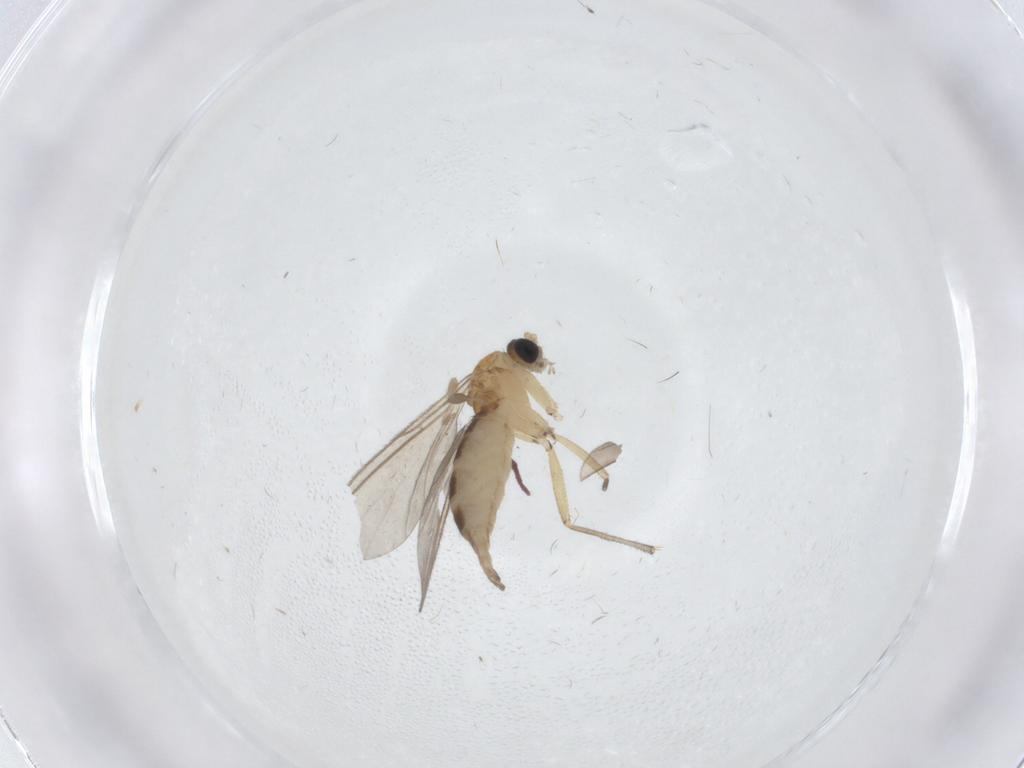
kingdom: Animalia
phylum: Arthropoda
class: Insecta
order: Diptera
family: Sciaridae
